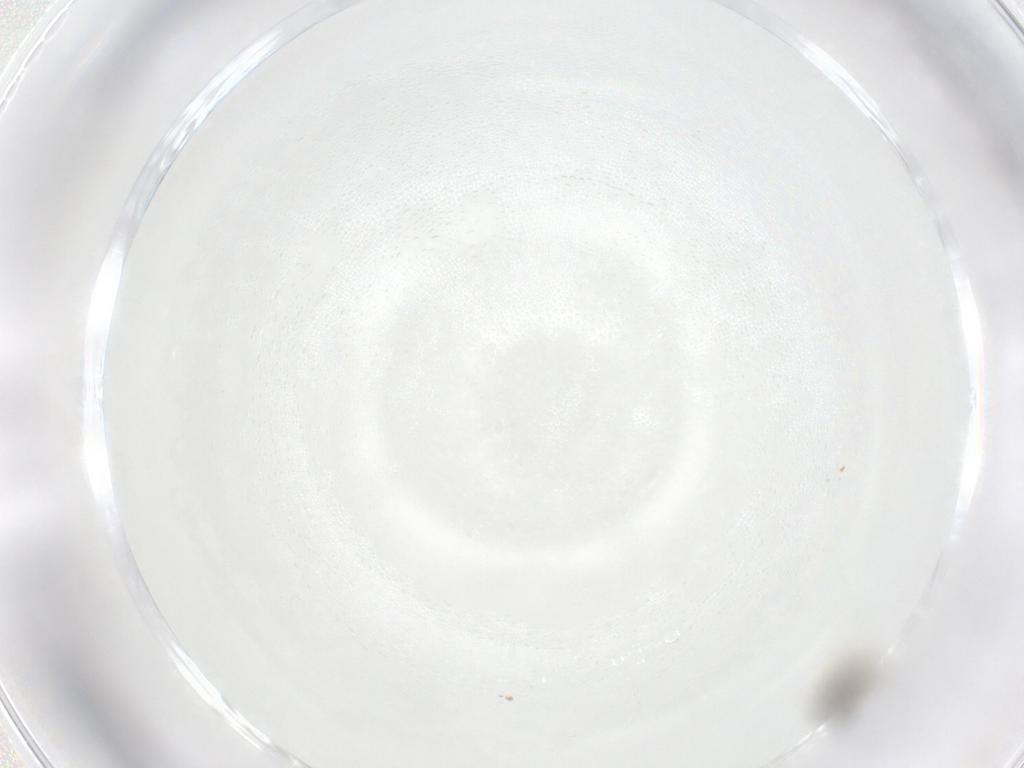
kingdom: Animalia
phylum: Arthropoda
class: Insecta
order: Diptera
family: Cecidomyiidae
